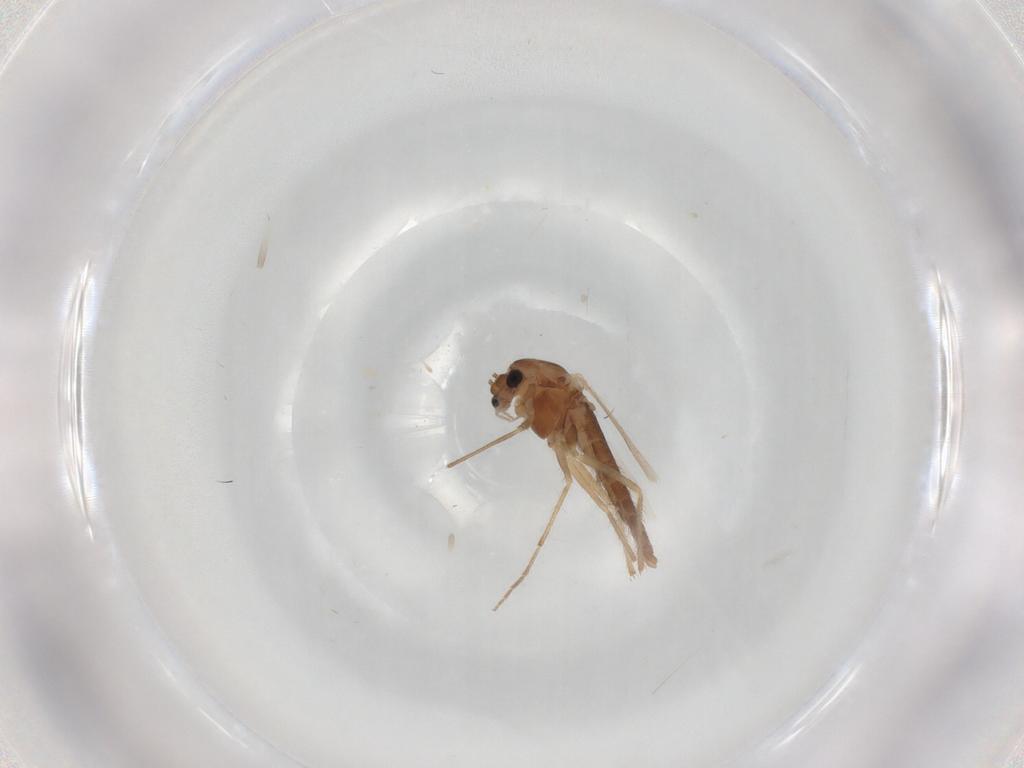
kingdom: Animalia
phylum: Arthropoda
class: Insecta
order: Diptera
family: Chironomidae
